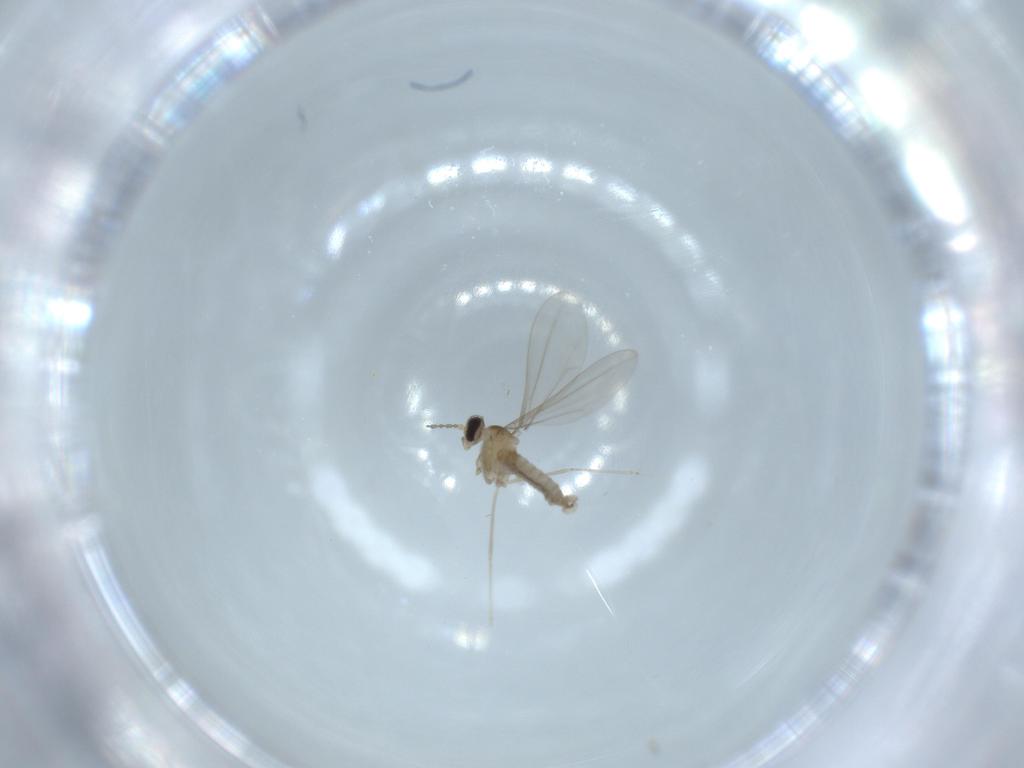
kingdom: Animalia
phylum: Arthropoda
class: Insecta
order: Diptera
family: Cecidomyiidae
